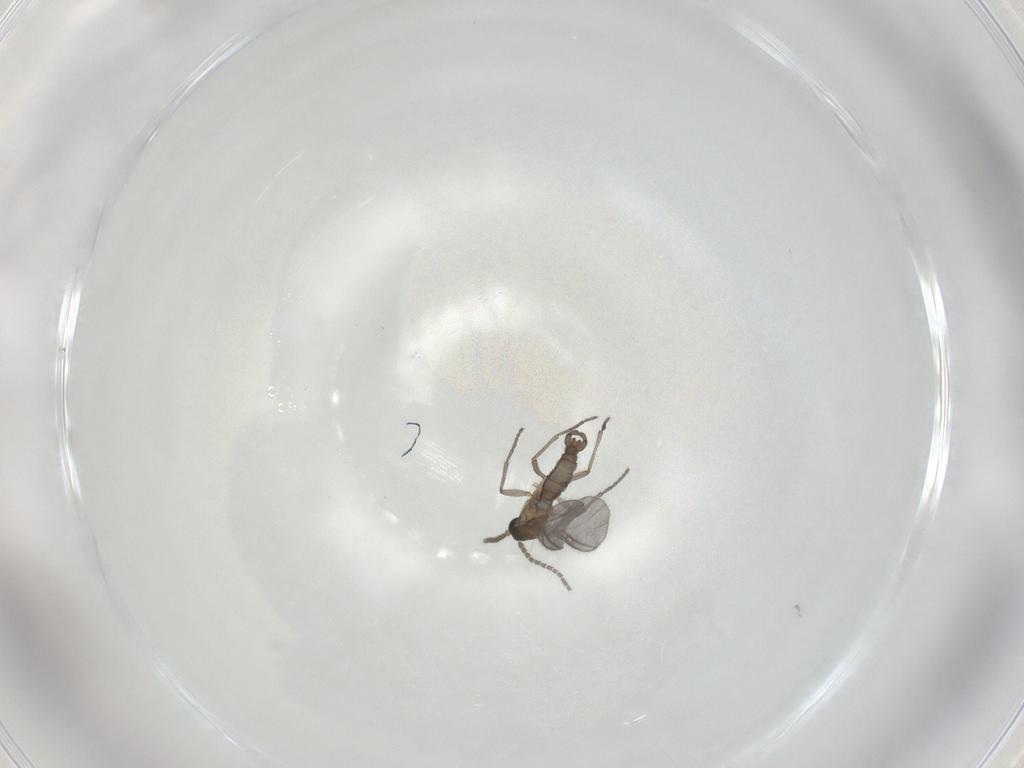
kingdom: Animalia
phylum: Arthropoda
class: Insecta
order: Diptera
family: Sciaridae
